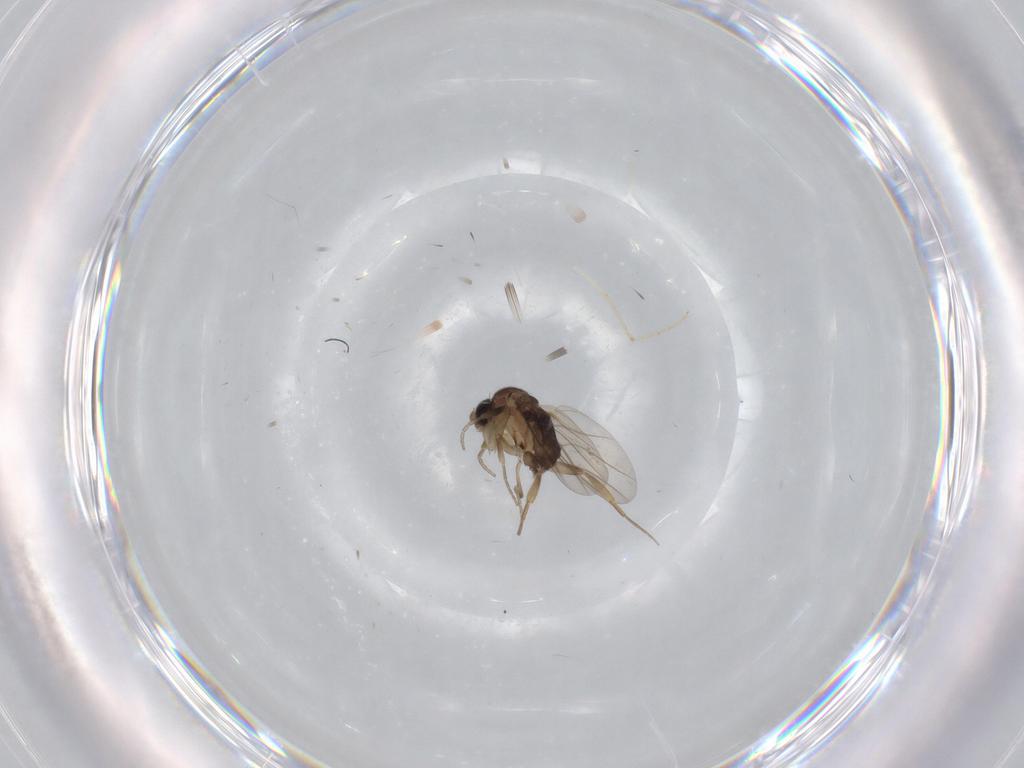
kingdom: Animalia
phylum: Arthropoda
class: Insecta
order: Diptera
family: Phoridae
